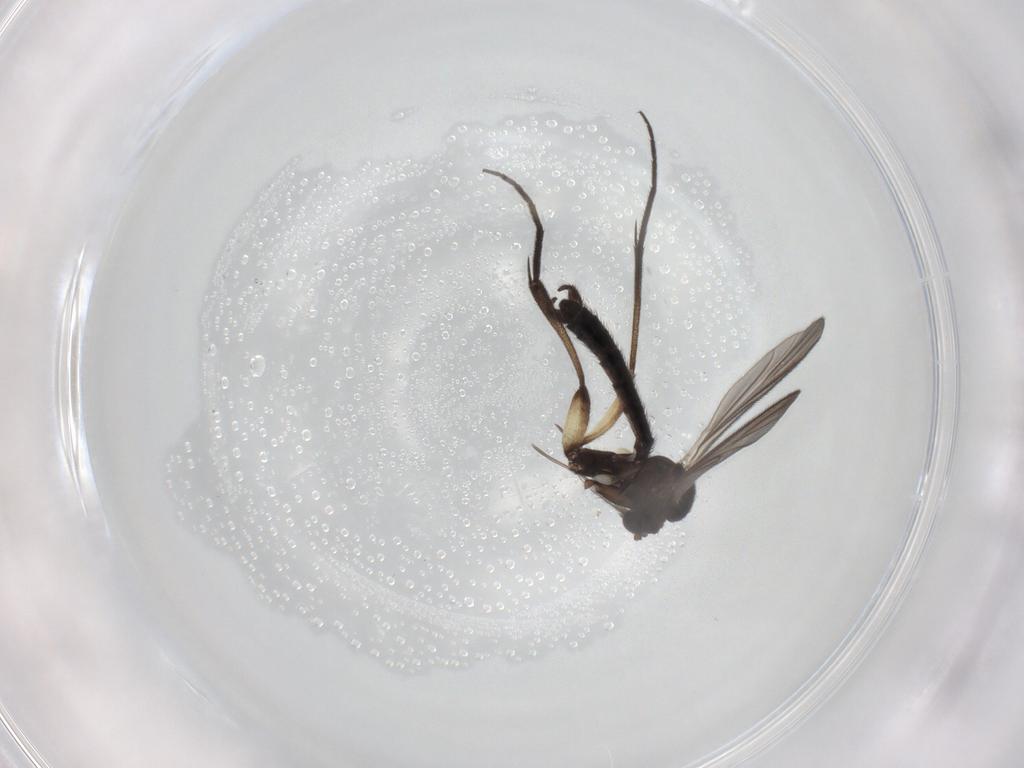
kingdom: Animalia
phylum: Arthropoda
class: Insecta
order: Diptera
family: Keroplatidae
